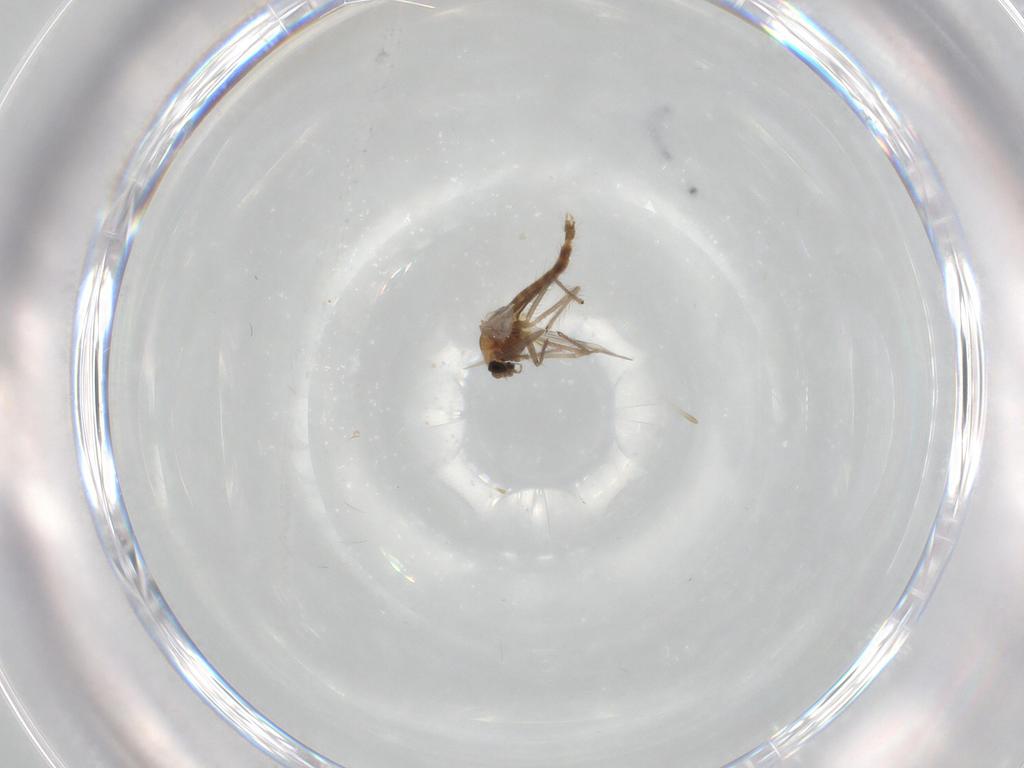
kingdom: Animalia
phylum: Arthropoda
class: Insecta
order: Diptera
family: Chironomidae
